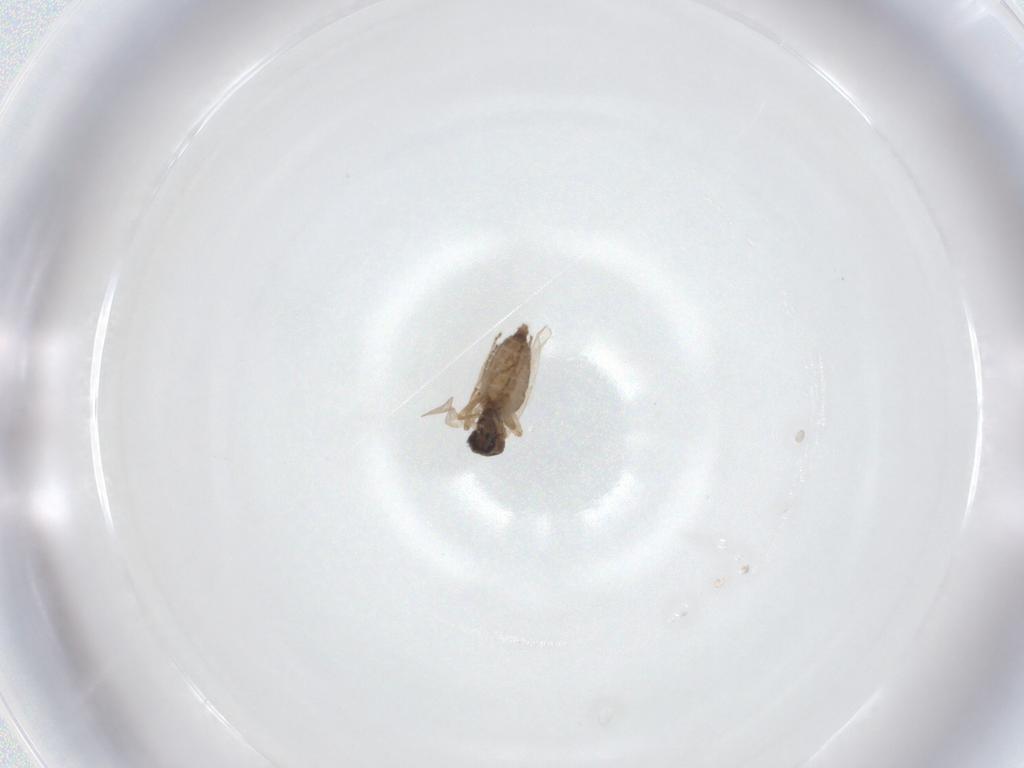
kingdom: Animalia
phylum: Arthropoda
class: Insecta
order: Diptera
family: Ceratopogonidae
